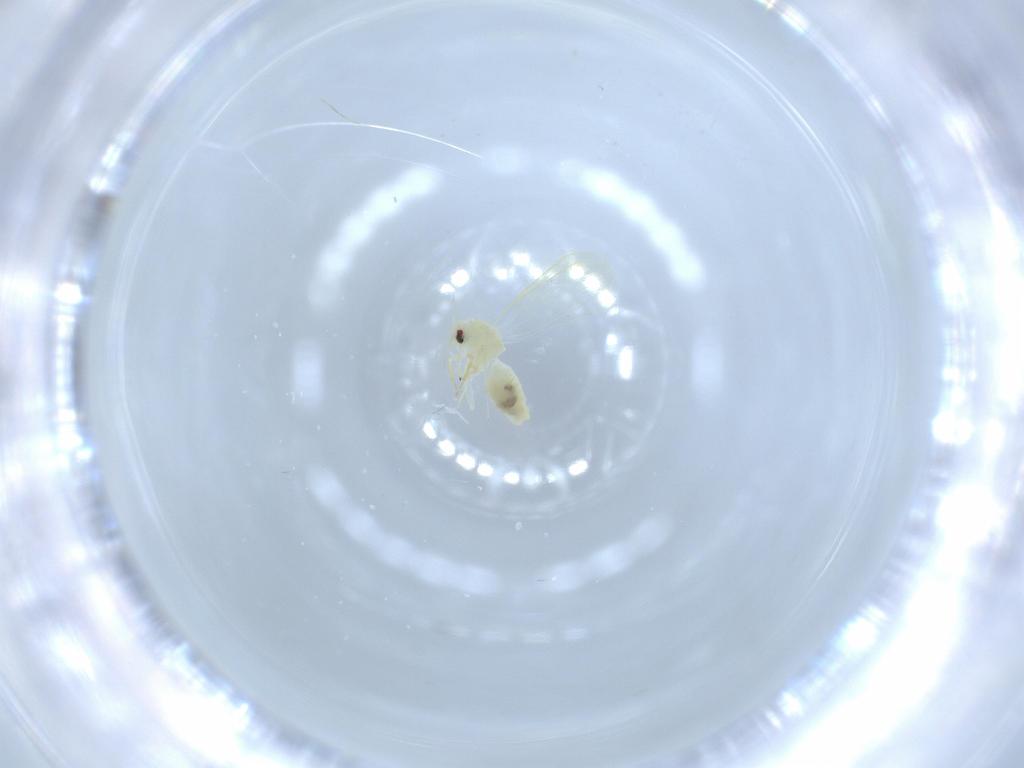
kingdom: Animalia
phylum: Arthropoda
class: Insecta
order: Hemiptera
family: Aleyrodidae
